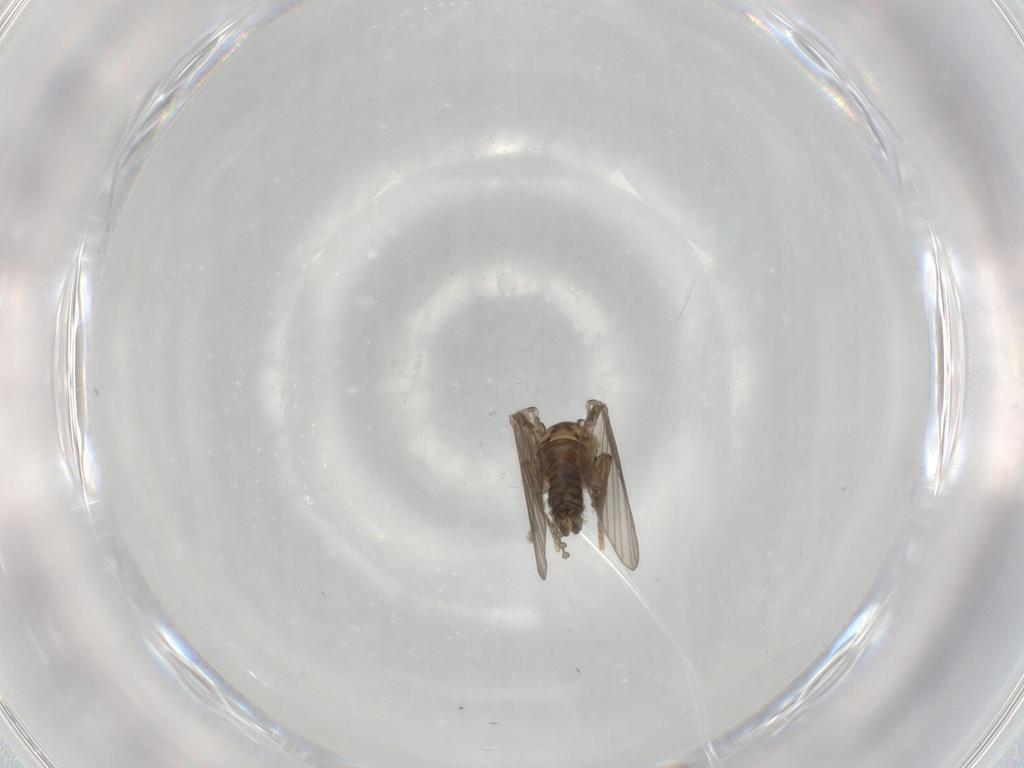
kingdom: Animalia
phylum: Arthropoda
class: Insecta
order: Diptera
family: Psychodidae
